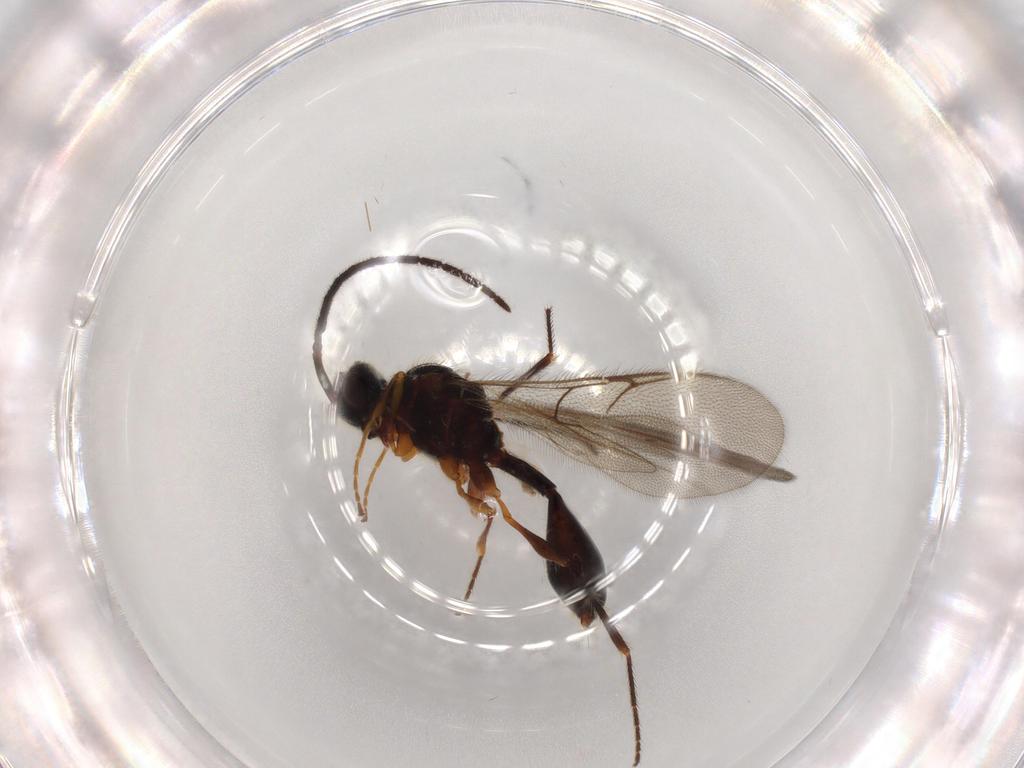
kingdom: Animalia
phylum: Arthropoda
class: Insecta
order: Hymenoptera
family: Diapriidae
